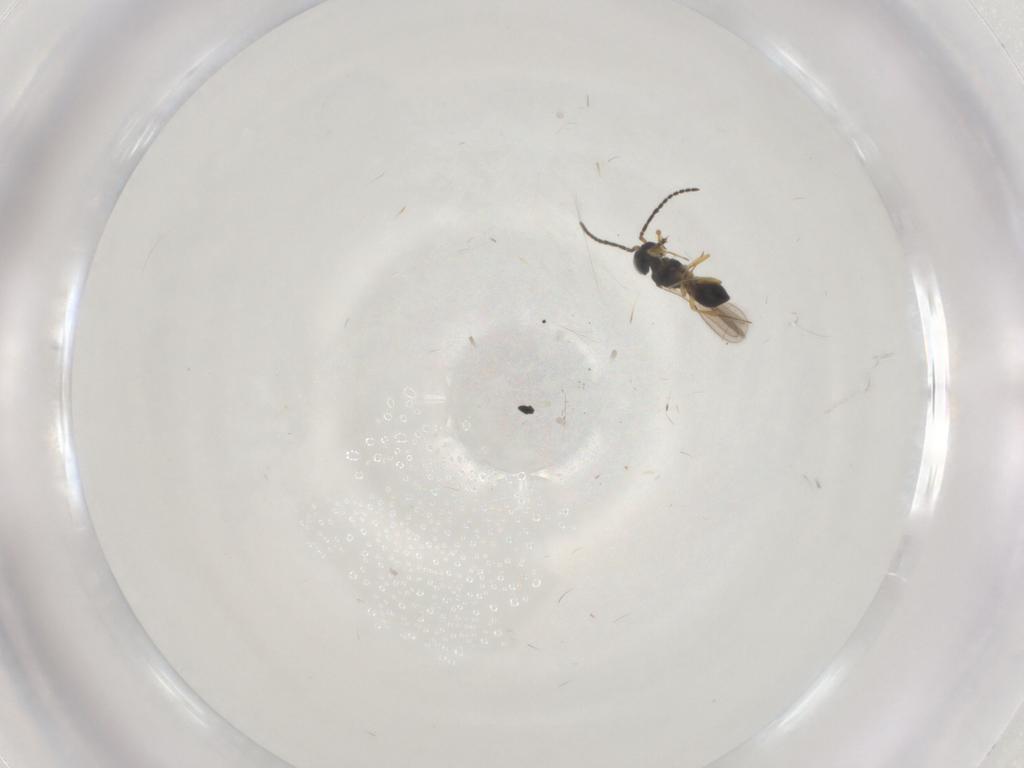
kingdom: Animalia
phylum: Arthropoda
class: Insecta
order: Hymenoptera
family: Scelionidae
